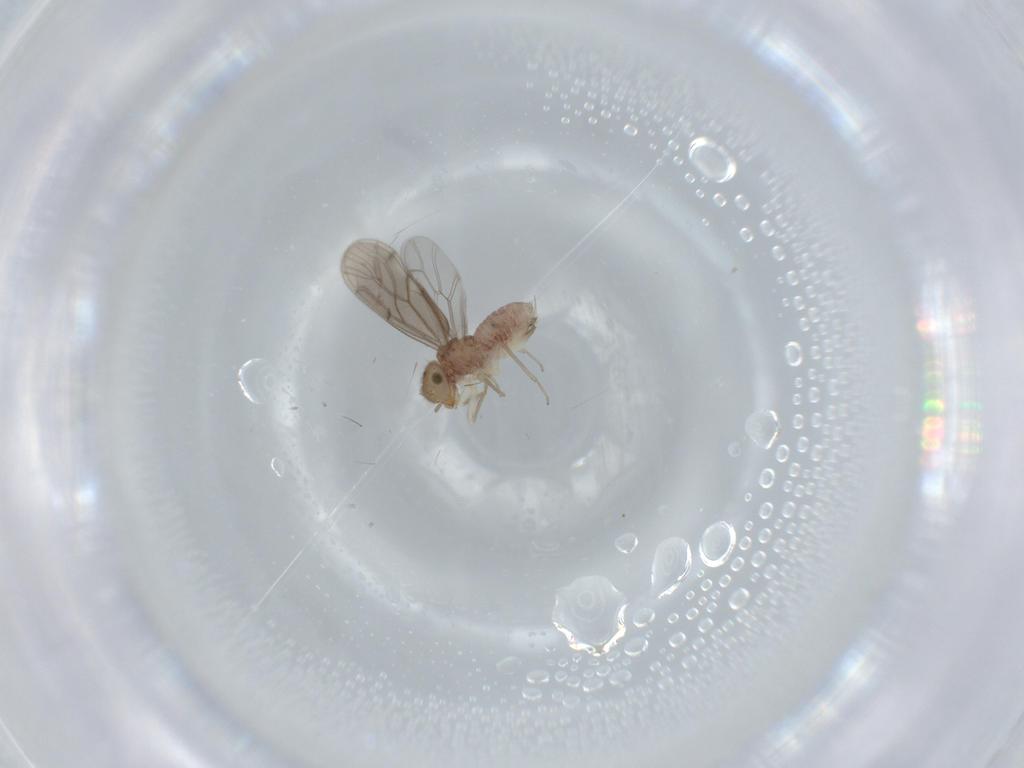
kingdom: Animalia
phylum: Arthropoda
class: Insecta
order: Psocodea
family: Ectopsocidae
